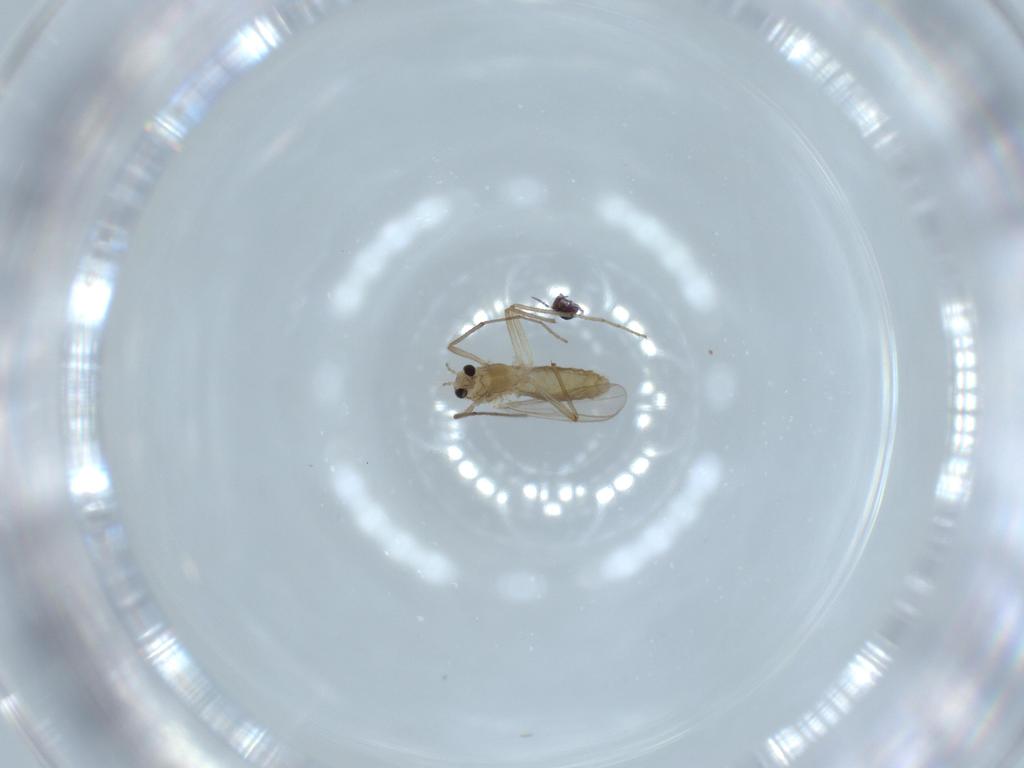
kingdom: Animalia
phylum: Arthropoda
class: Insecta
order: Diptera
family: Chironomidae
